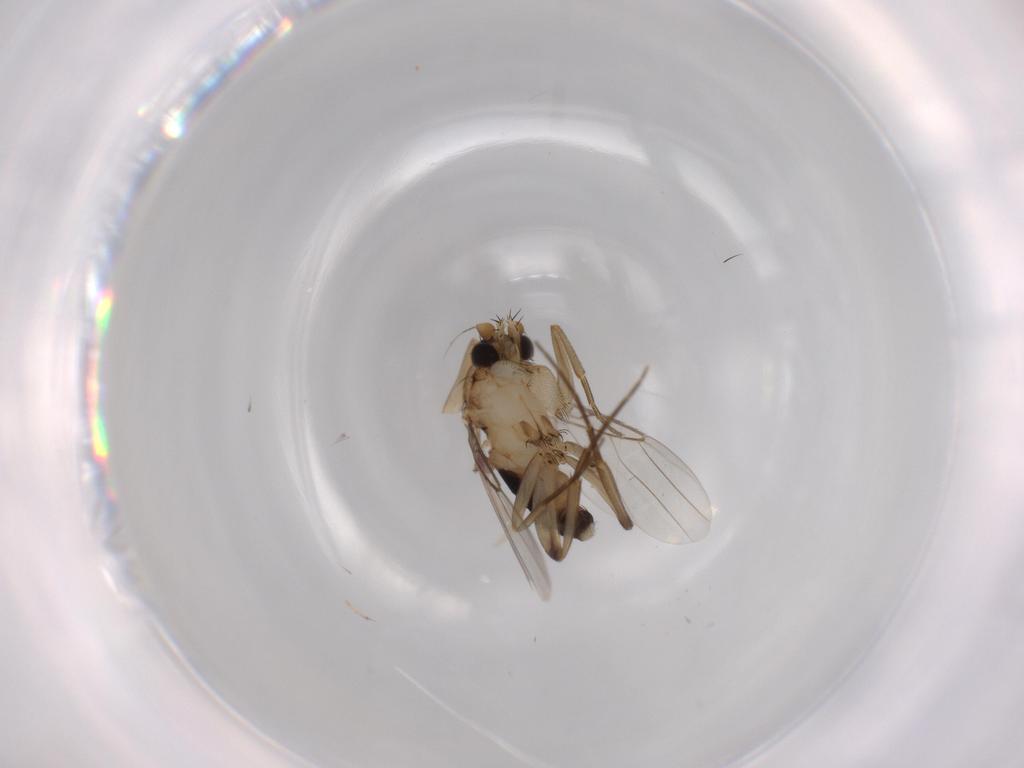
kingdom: Animalia
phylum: Arthropoda
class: Insecta
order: Diptera
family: Phoridae
